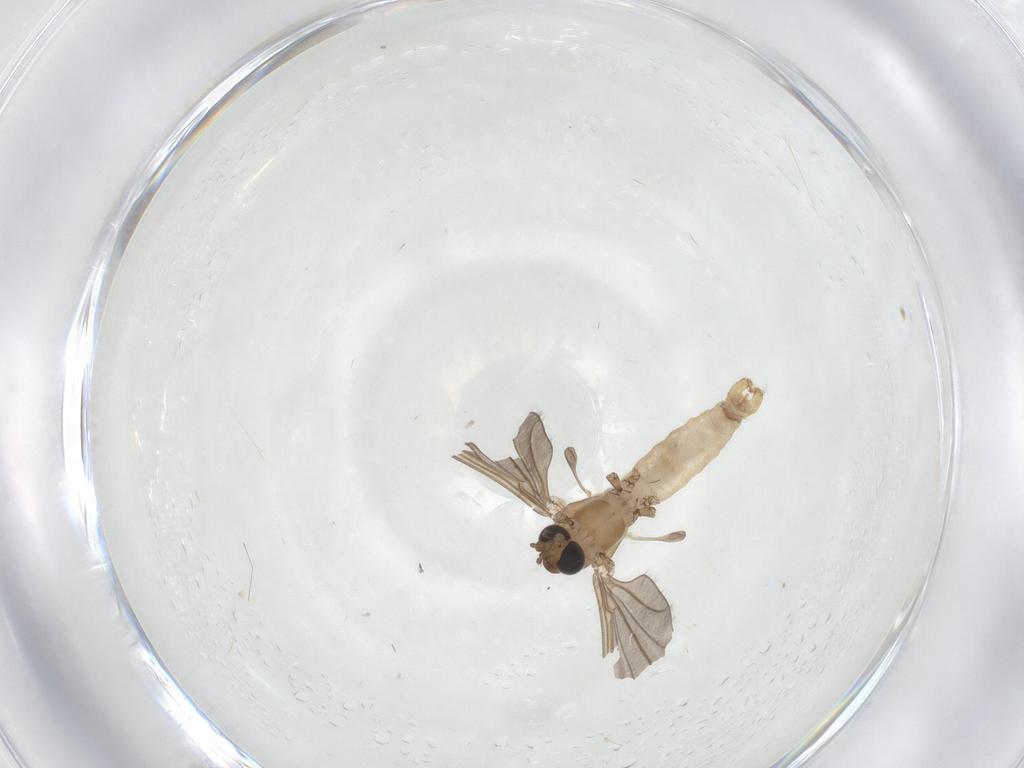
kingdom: Animalia
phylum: Arthropoda
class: Insecta
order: Diptera
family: Limoniidae
